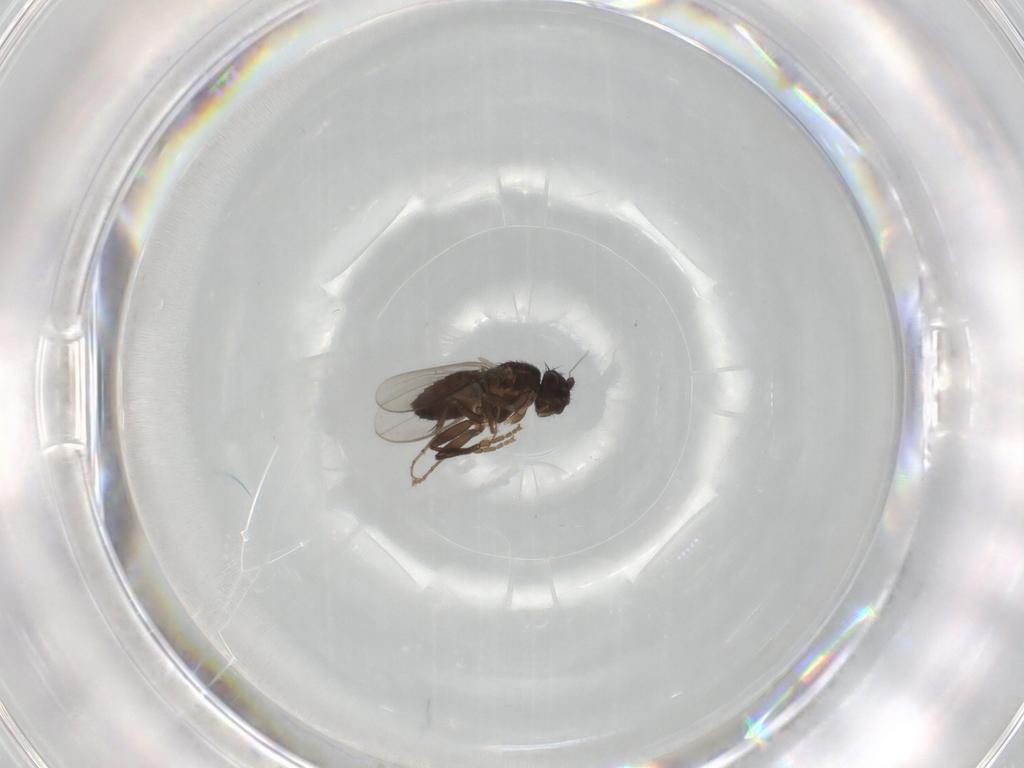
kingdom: Animalia
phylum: Arthropoda
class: Insecta
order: Diptera
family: Sphaeroceridae
